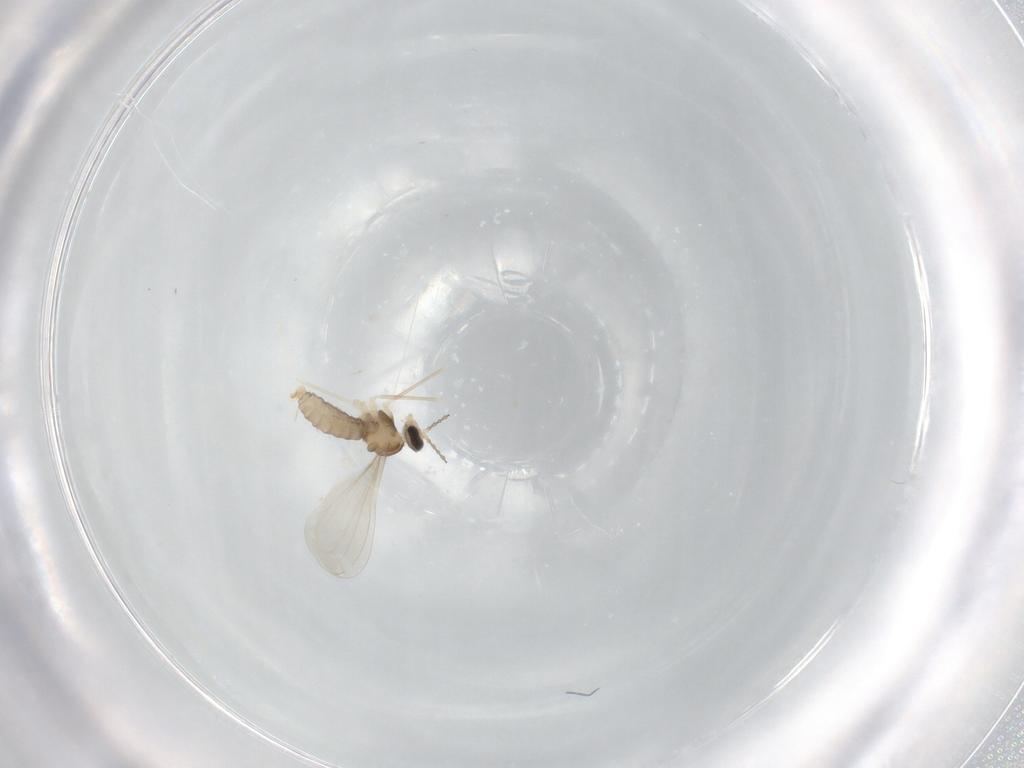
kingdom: Animalia
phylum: Arthropoda
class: Insecta
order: Diptera
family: Cecidomyiidae
